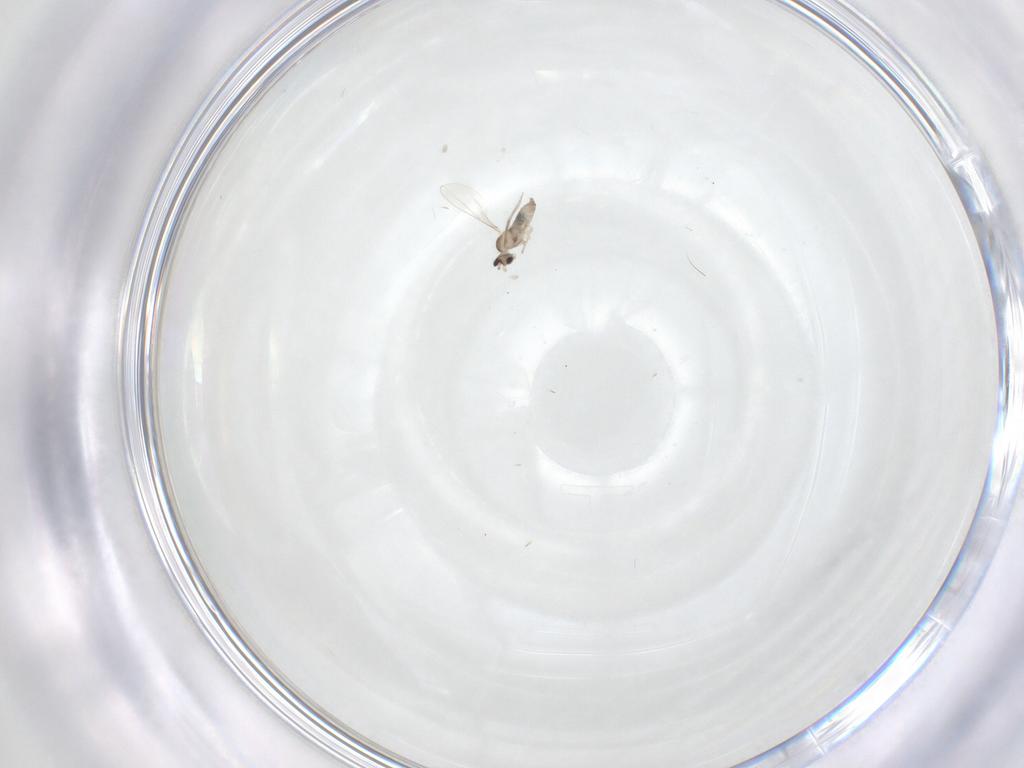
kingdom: Animalia
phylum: Arthropoda
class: Insecta
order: Diptera
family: Cecidomyiidae
